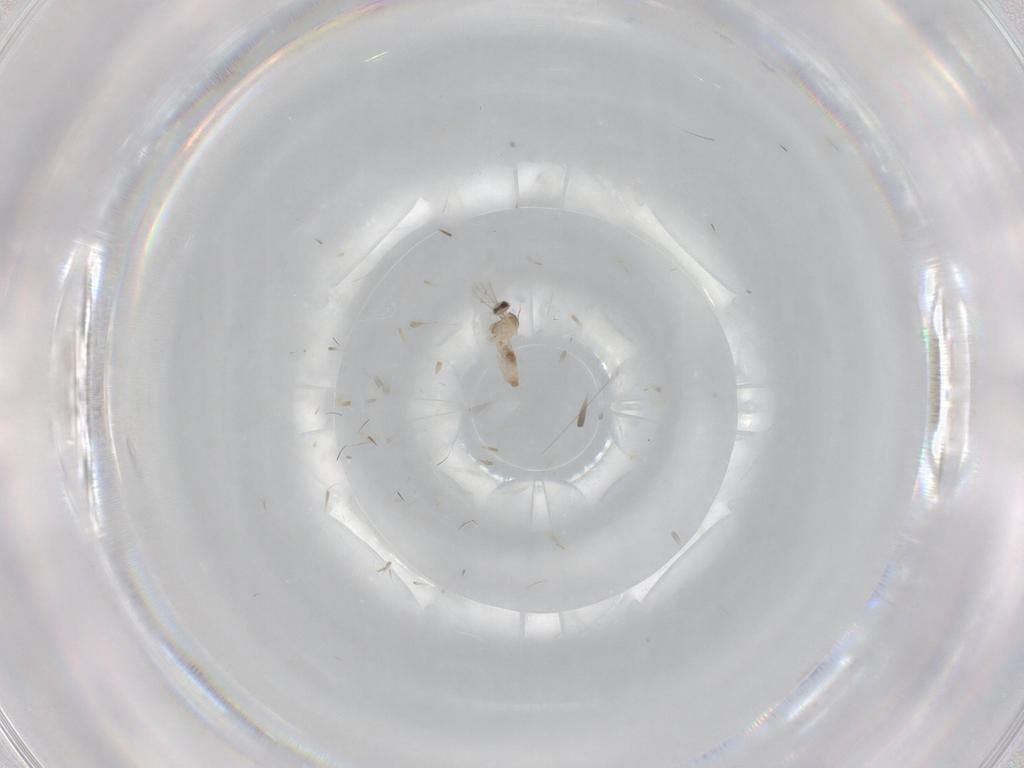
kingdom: Animalia
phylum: Arthropoda
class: Insecta
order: Diptera
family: Cecidomyiidae
